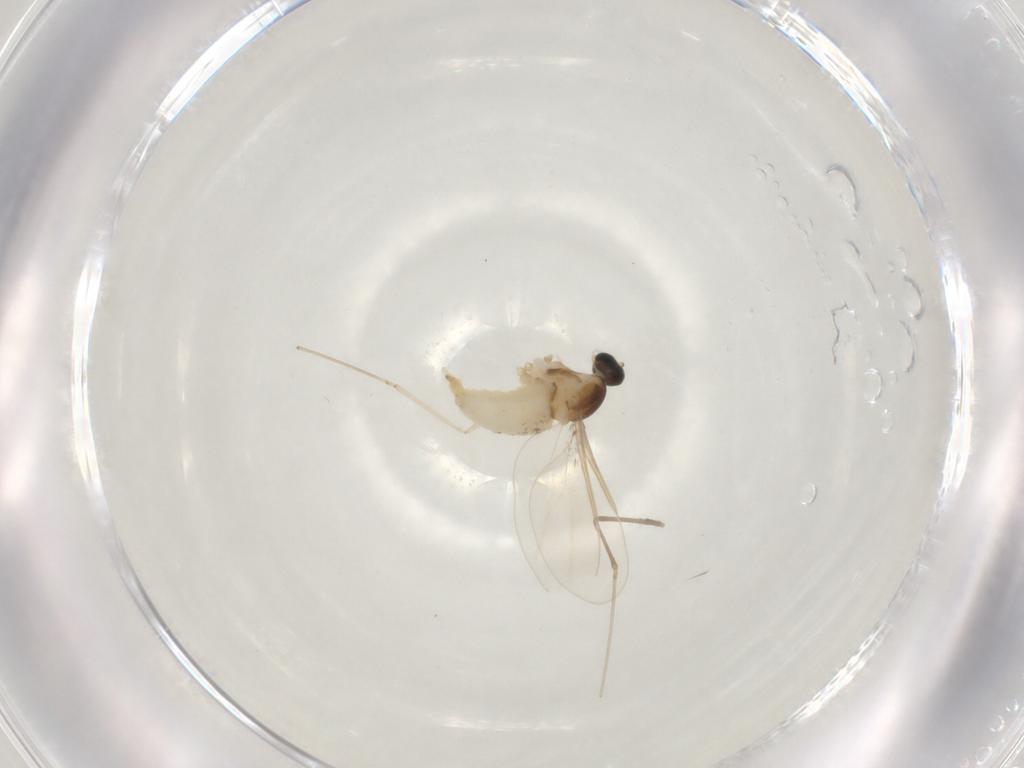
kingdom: Animalia
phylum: Arthropoda
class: Insecta
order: Diptera
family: Cecidomyiidae
